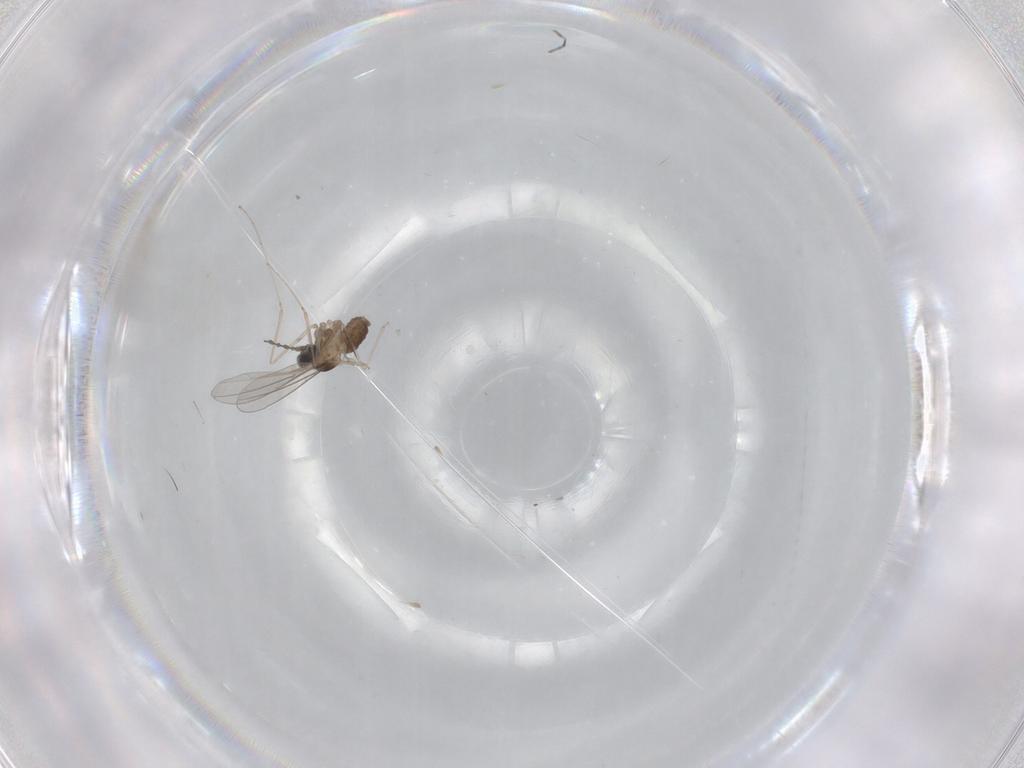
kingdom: Animalia
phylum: Arthropoda
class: Insecta
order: Diptera
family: Cecidomyiidae
